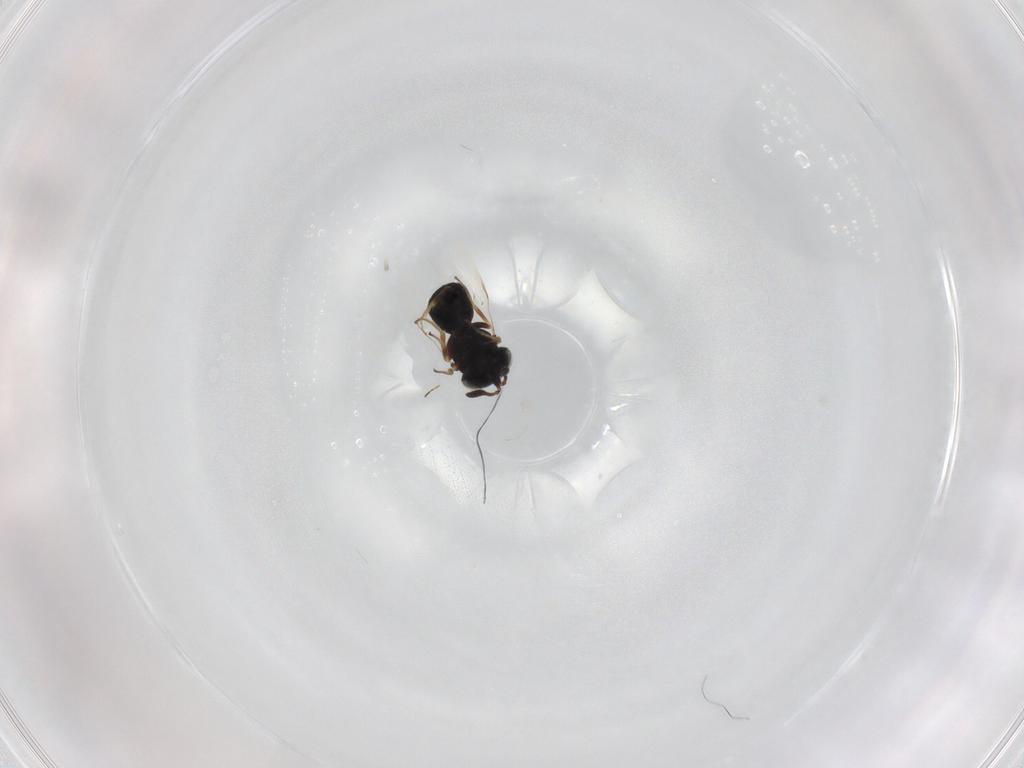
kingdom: Animalia
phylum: Arthropoda
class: Insecta
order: Hymenoptera
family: Scelionidae
